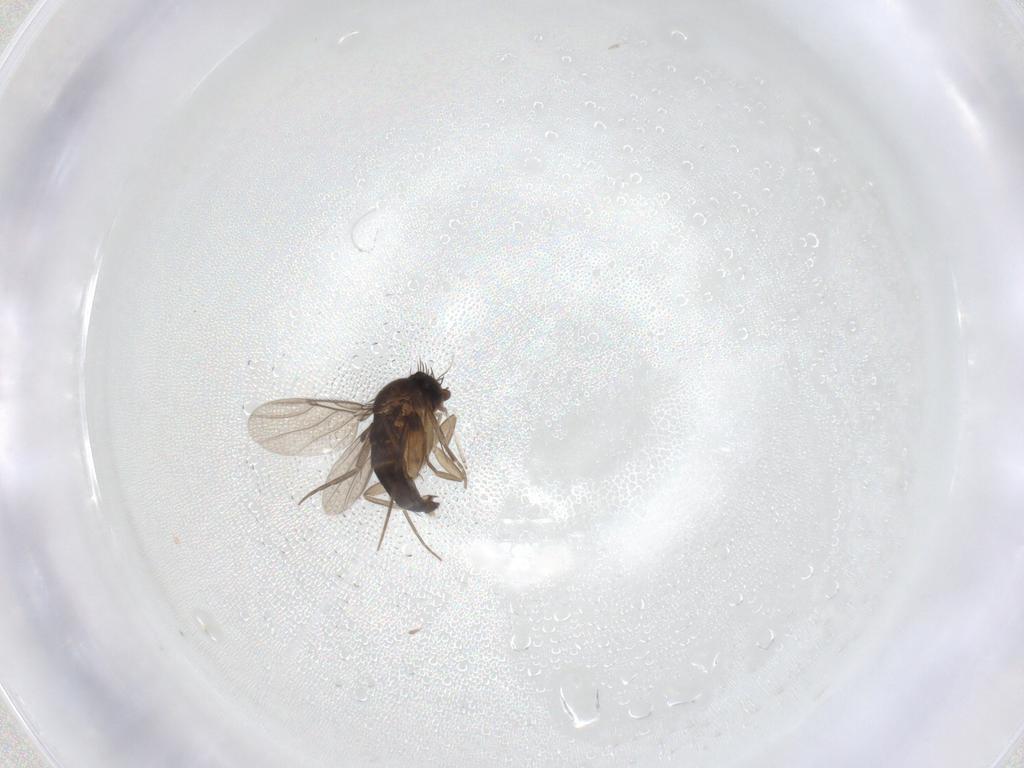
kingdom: Animalia
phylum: Arthropoda
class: Insecta
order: Diptera
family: Phoridae
